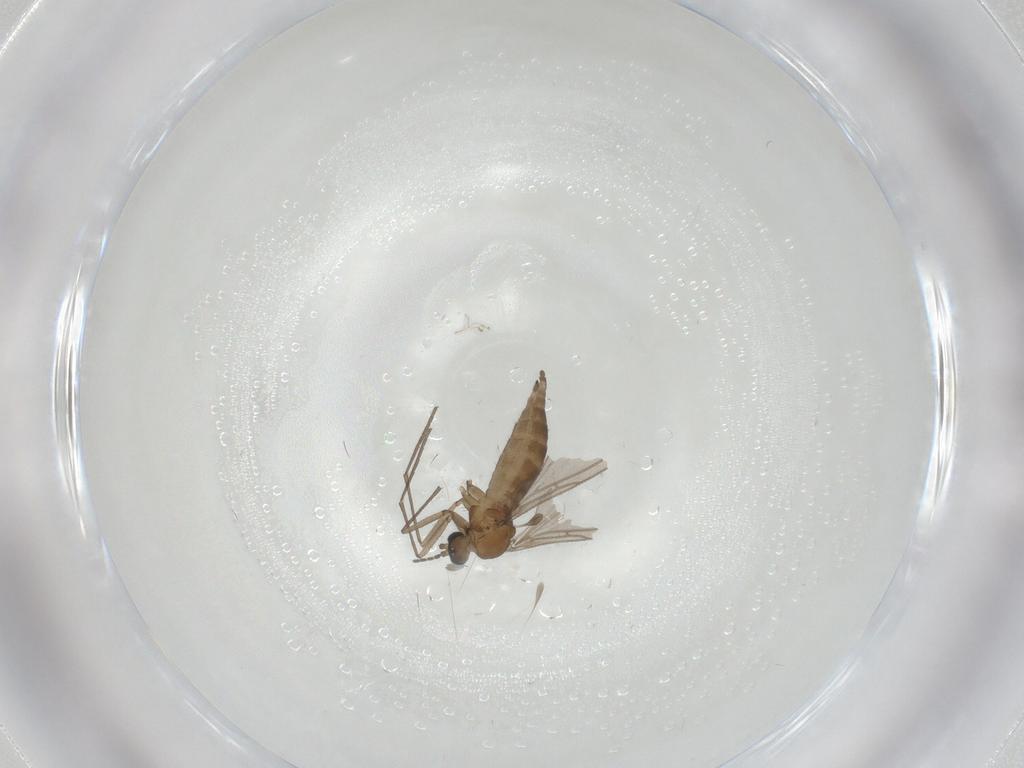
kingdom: Animalia
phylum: Arthropoda
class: Insecta
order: Diptera
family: Sciaridae
